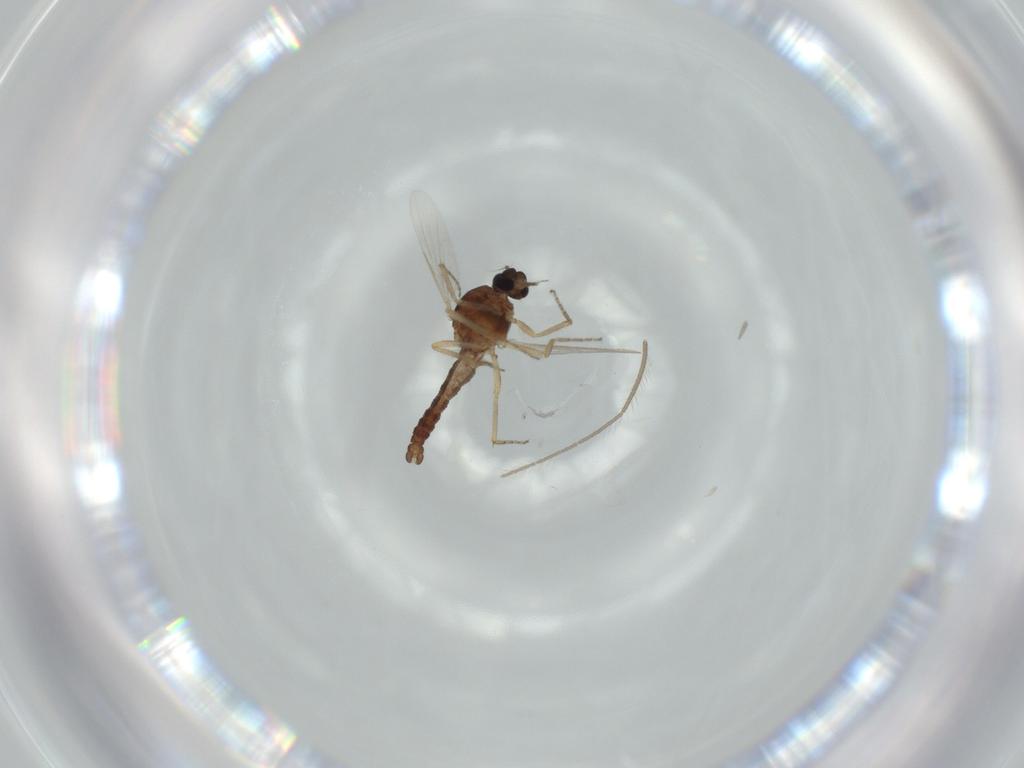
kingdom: Animalia
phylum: Arthropoda
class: Insecta
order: Diptera
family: Ceratopogonidae
